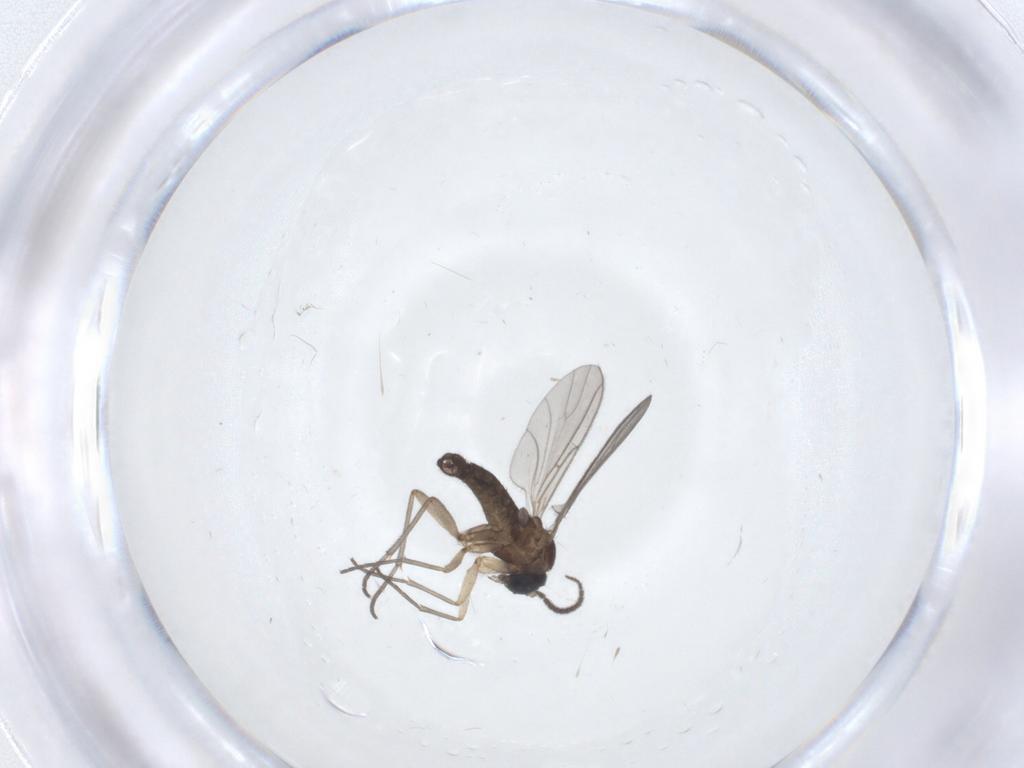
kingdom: Animalia
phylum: Arthropoda
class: Insecta
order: Diptera
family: Sciaridae
